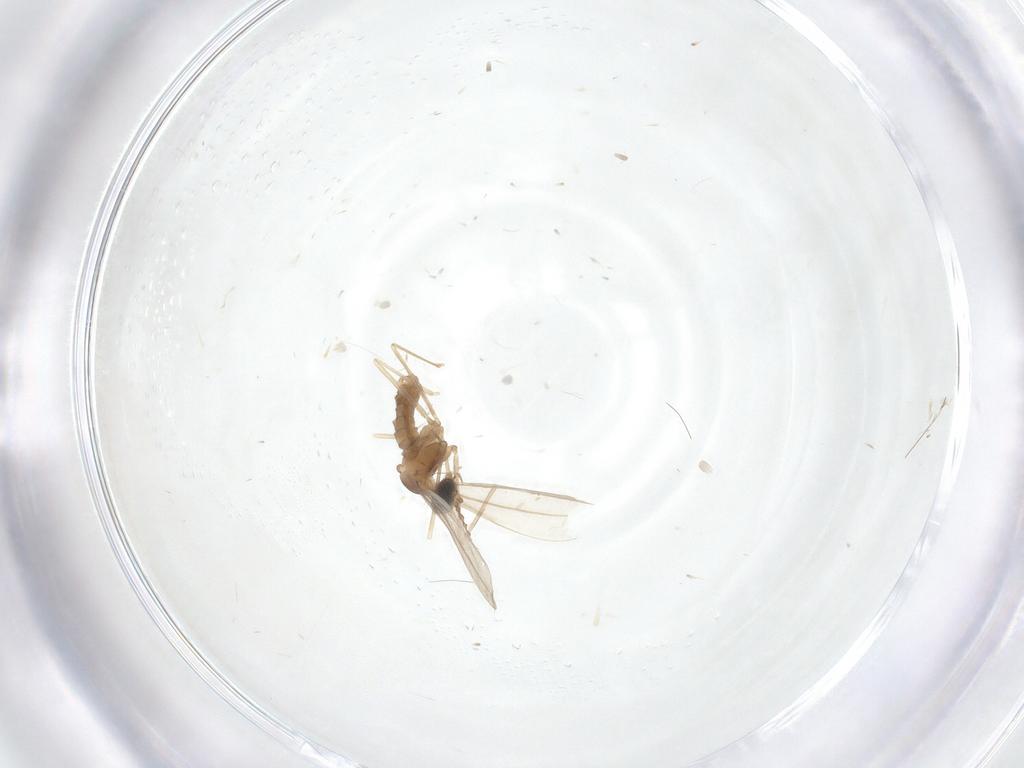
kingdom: Animalia
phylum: Arthropoda
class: Insecta
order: Diptera
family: Cecidomyiidae
